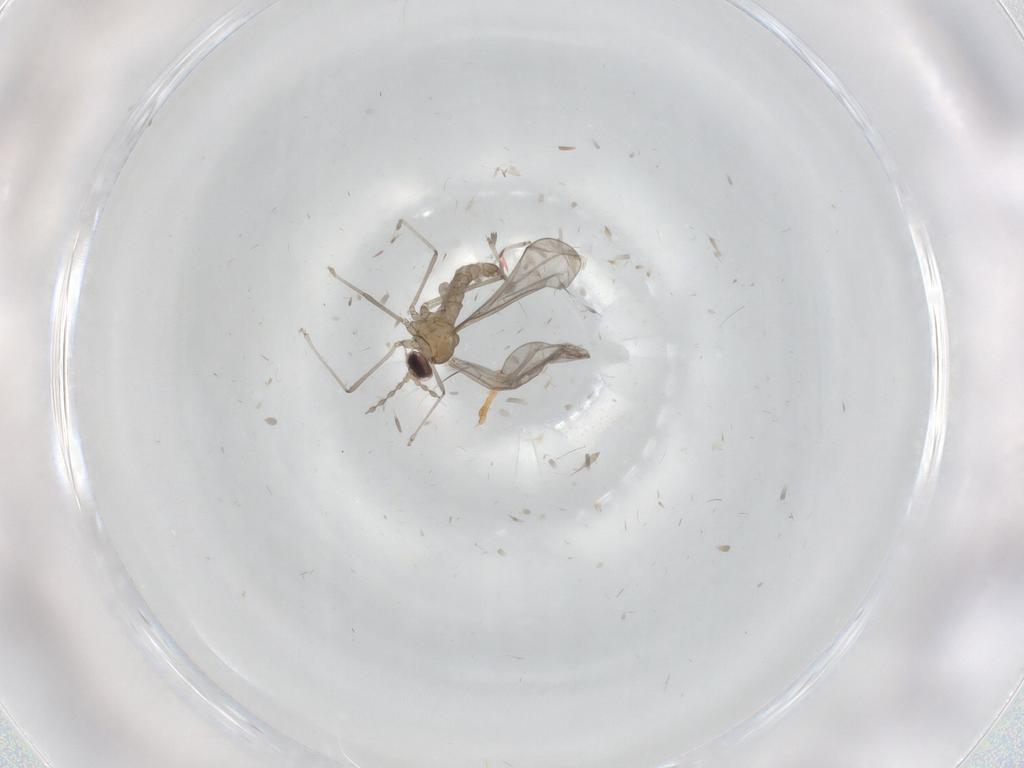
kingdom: Animalia
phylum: Arthropoda
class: Insecta
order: Diptera
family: Cecidomyiidae
